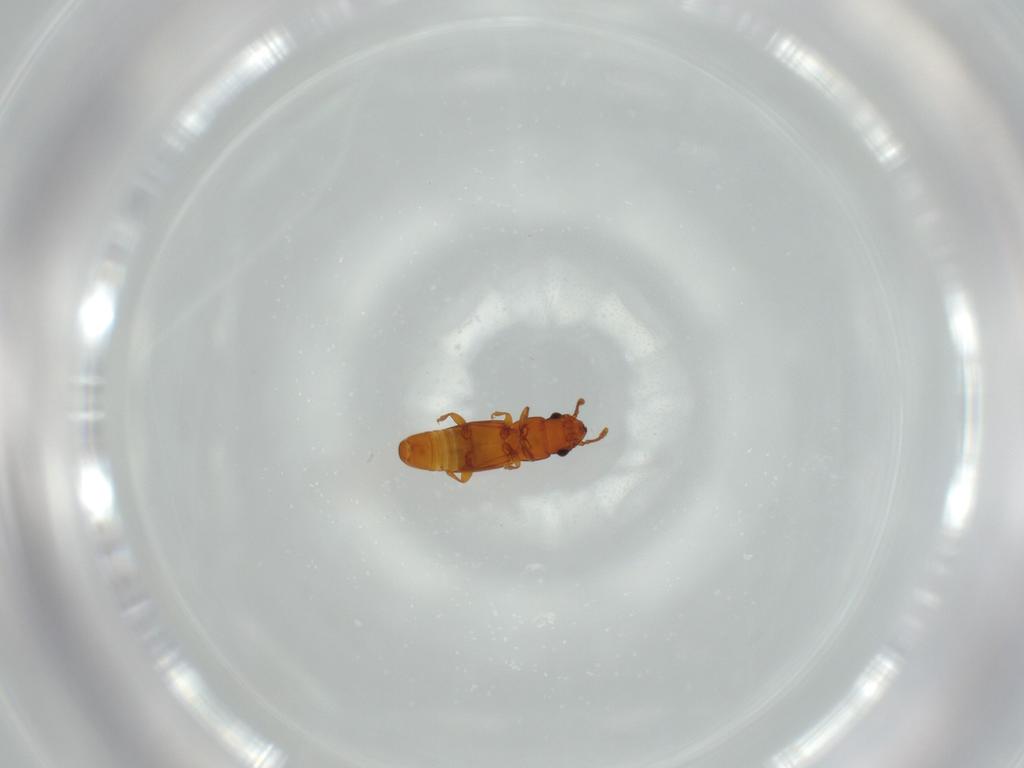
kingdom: Animalia
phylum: Arthropoda
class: Insecta
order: Coleoptera
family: Smicripidae
